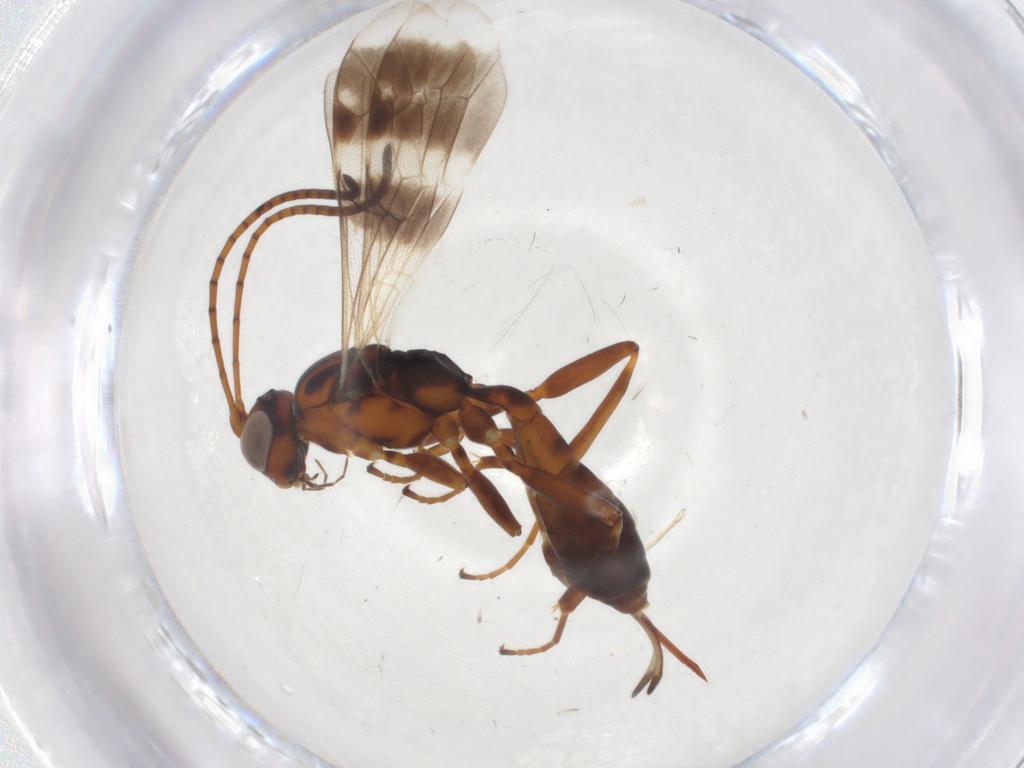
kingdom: Animalia
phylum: Arthropoda
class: Insecta
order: Hymenoptera
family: Ichneumonidae
